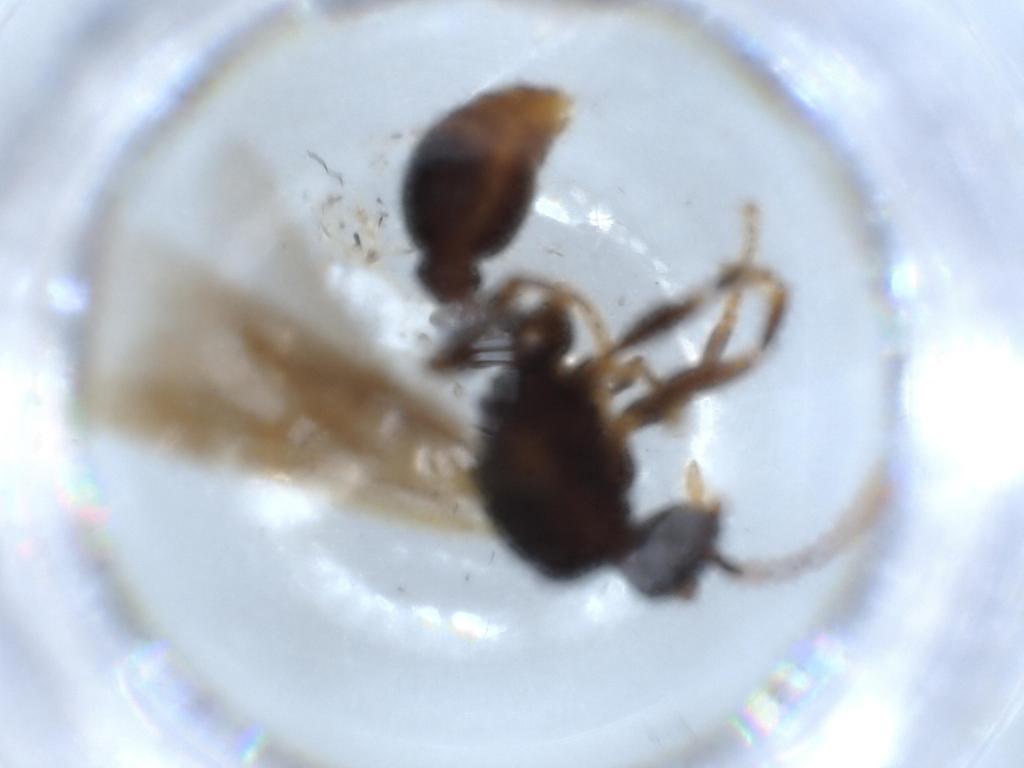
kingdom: Animalia
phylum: Arthropoda
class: Insecta
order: Hymenoptera
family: Formicidae
